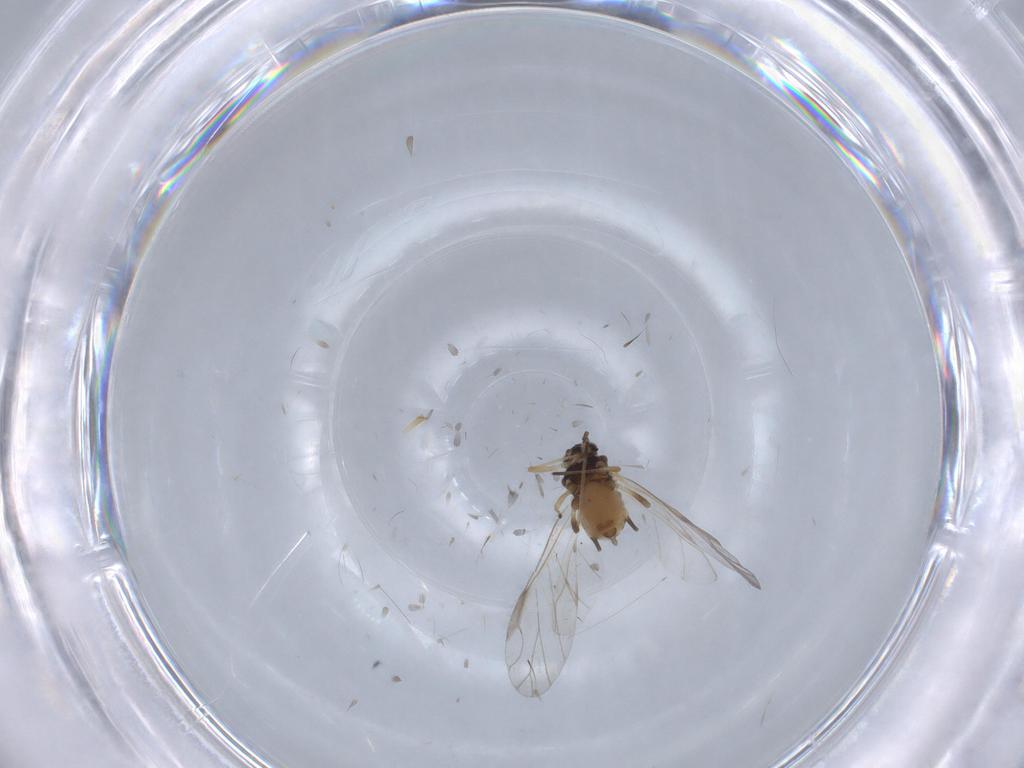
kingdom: Animalia
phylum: Arthropoda
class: Insecta
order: Hemiptera
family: Aphididae
